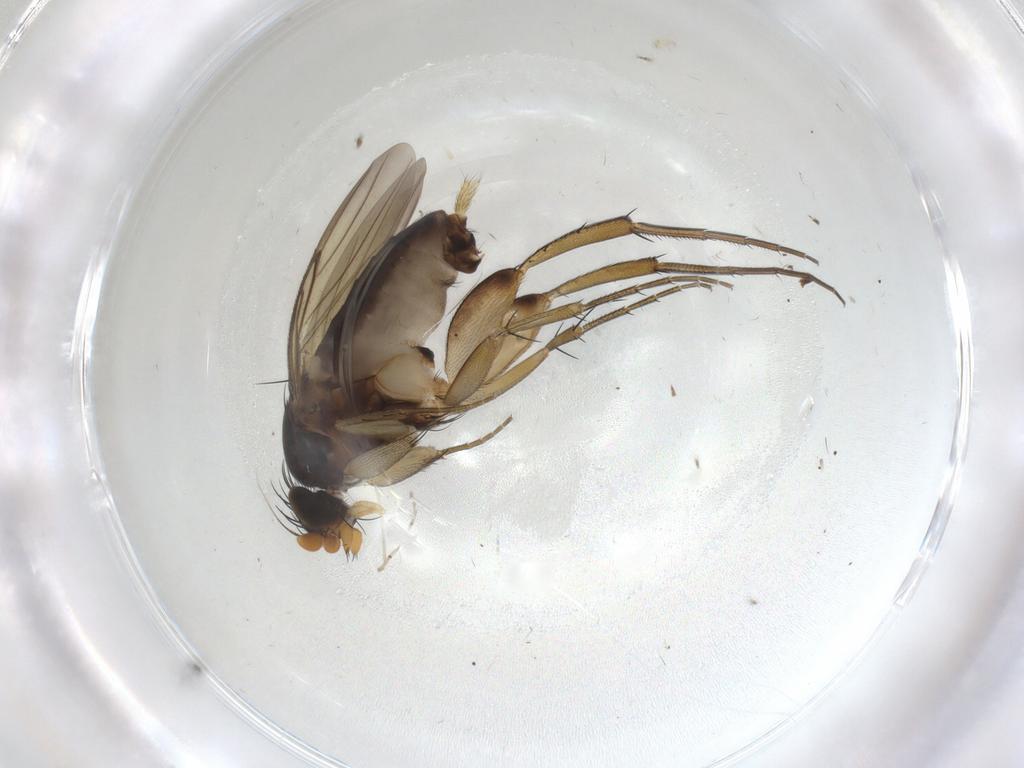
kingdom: Animalia
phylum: Arthropoda
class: Insecta
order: Diptera
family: Phoridae
